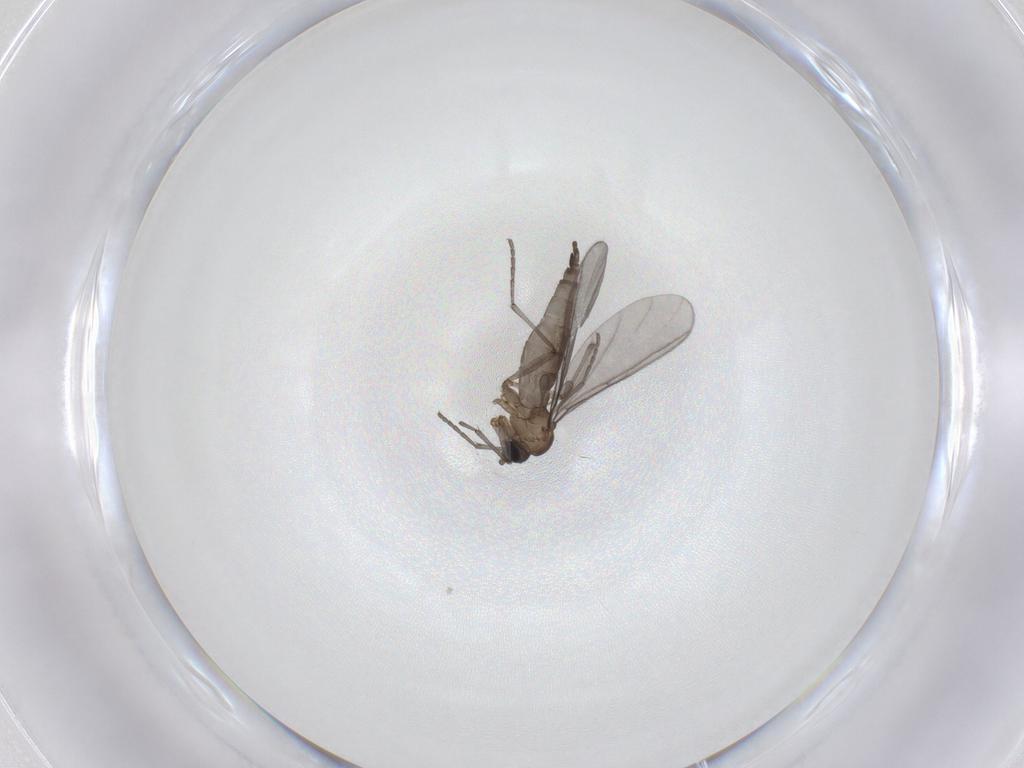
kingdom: Animalia
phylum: Arthropoda
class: Insecta
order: Diptera
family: Sciaridae
